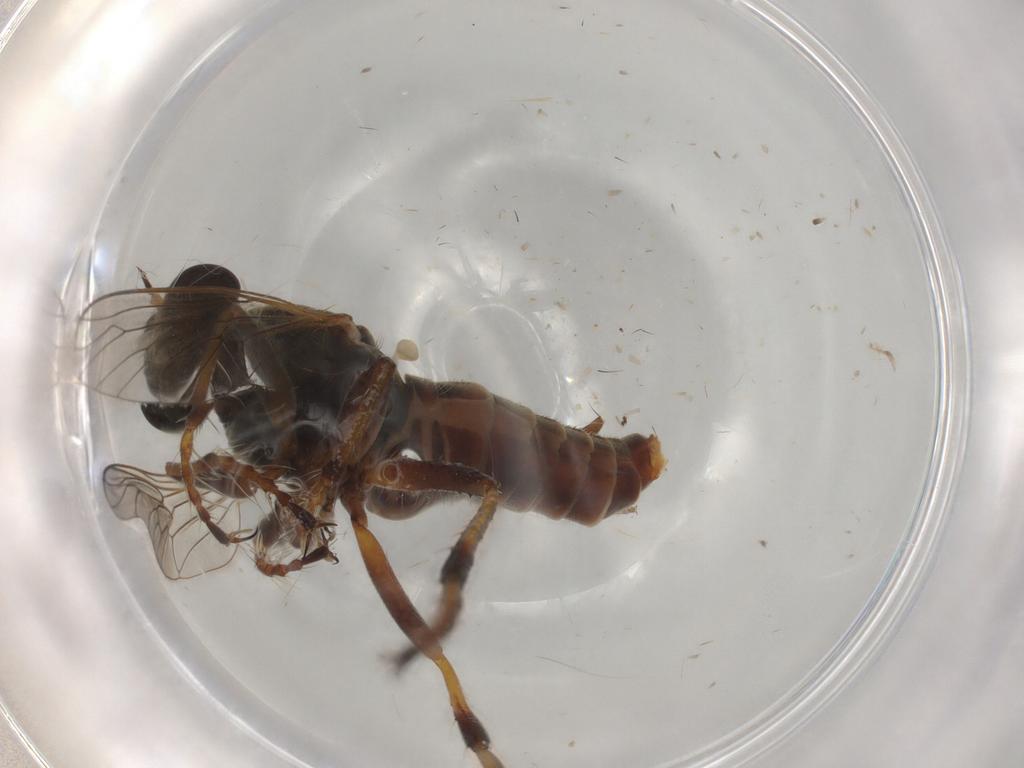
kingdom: Animalia
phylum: Arthropoda
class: Insecta
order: Diptera
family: Asilidae
